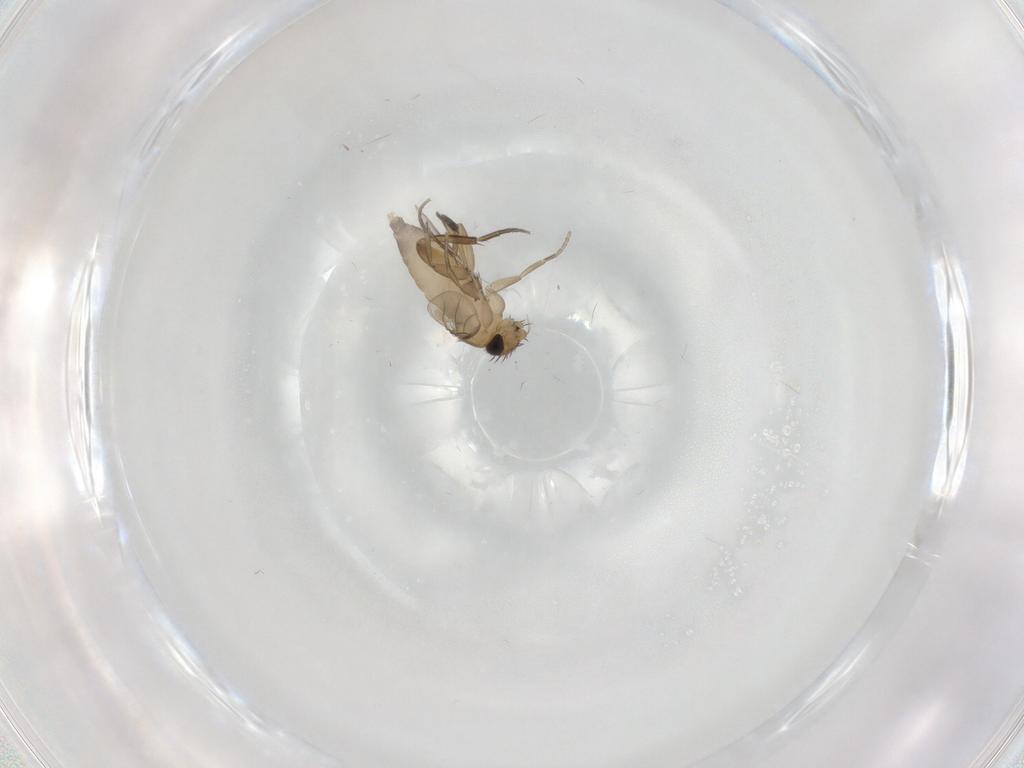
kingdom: Animalia
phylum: Arthropoda
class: Insecta
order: Diptera
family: Phoridae
